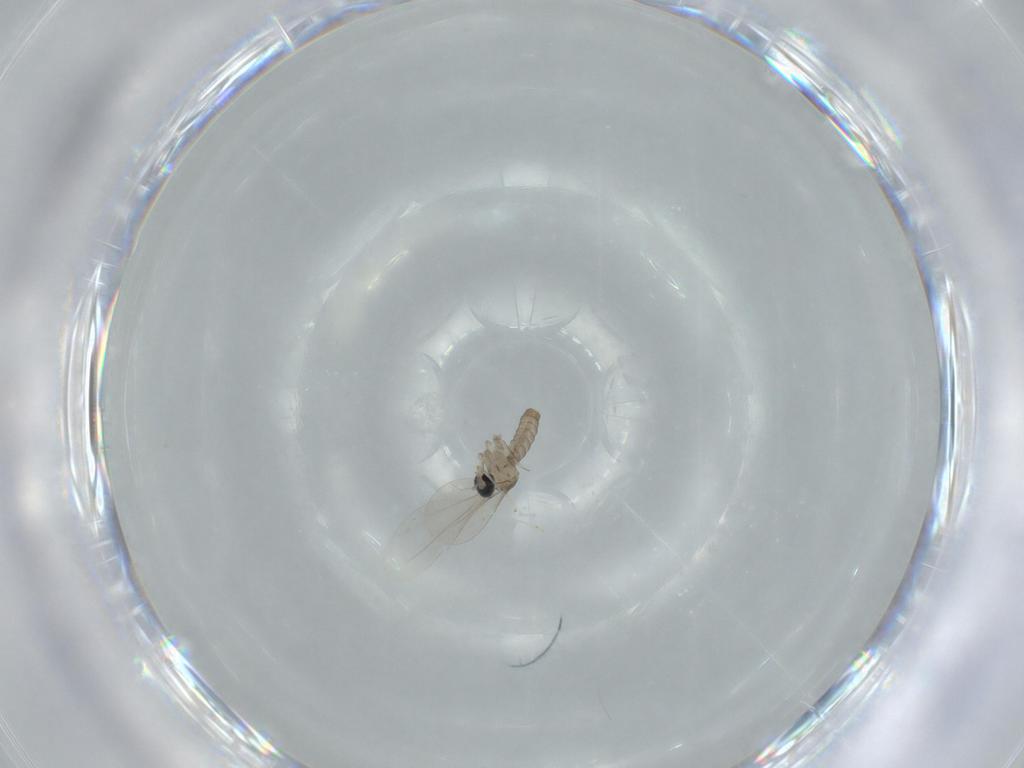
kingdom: Animalia
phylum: Arthropoda
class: Insecta
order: Diptera
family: Cecidomyiidae
